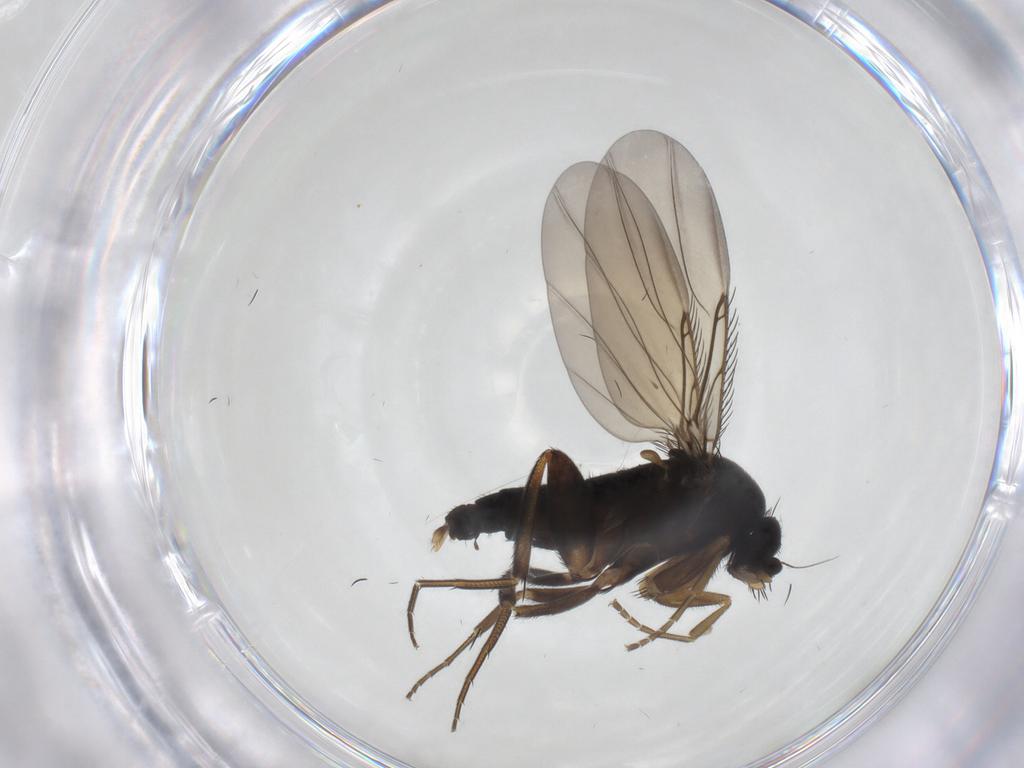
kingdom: Animalia
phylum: Arthropoda
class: Insecta
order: Diptera
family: Phoridae
